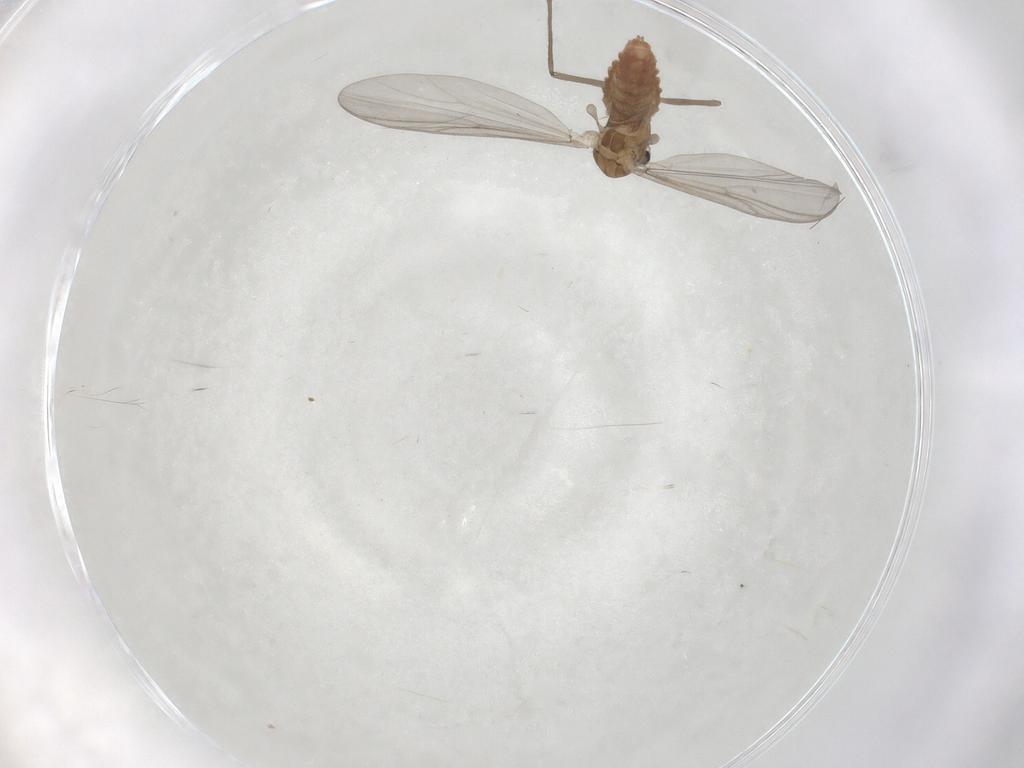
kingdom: Animalia
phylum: Arthropoda
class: Insecta
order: Diptera
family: Chironomidae
